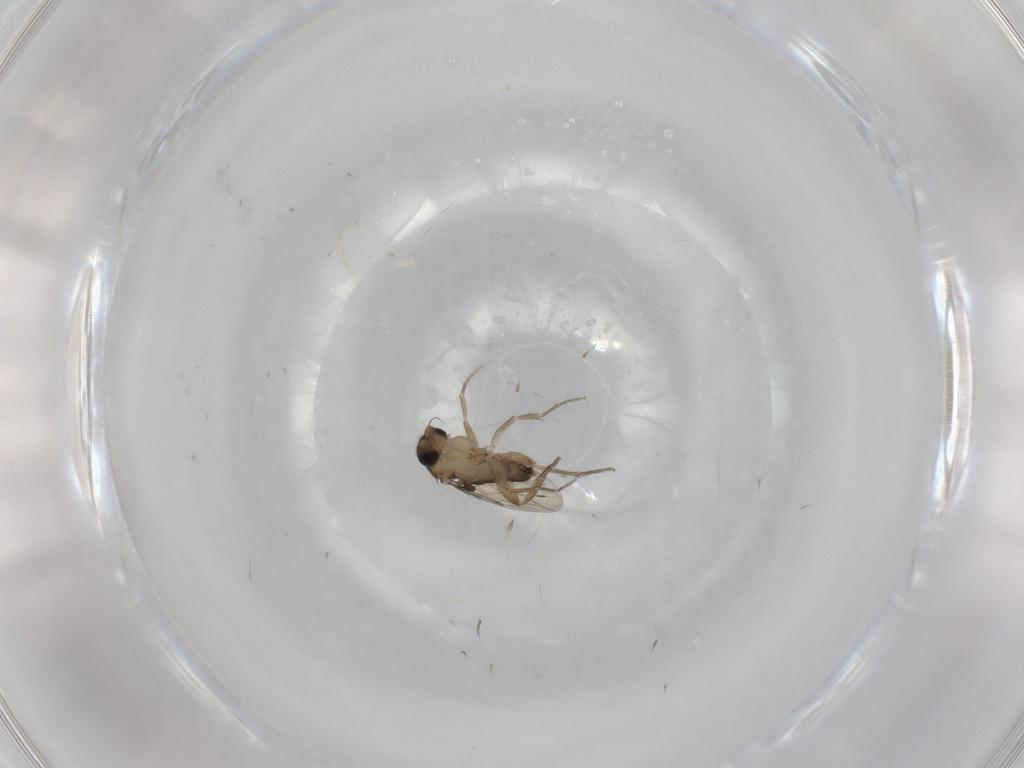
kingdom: Animalia
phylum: Arthropoda
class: Insecta
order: Diptera
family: Phoridae
